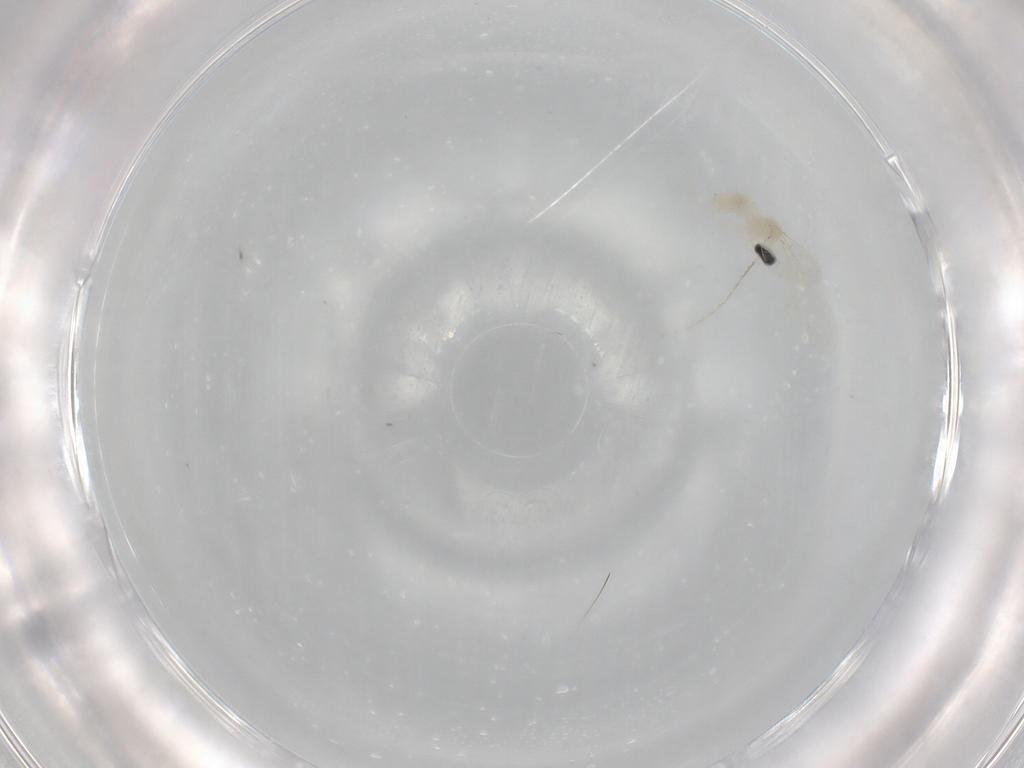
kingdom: Animalia
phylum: Arthropoda
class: Insecta
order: Diptera
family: Cecidomyiidae
